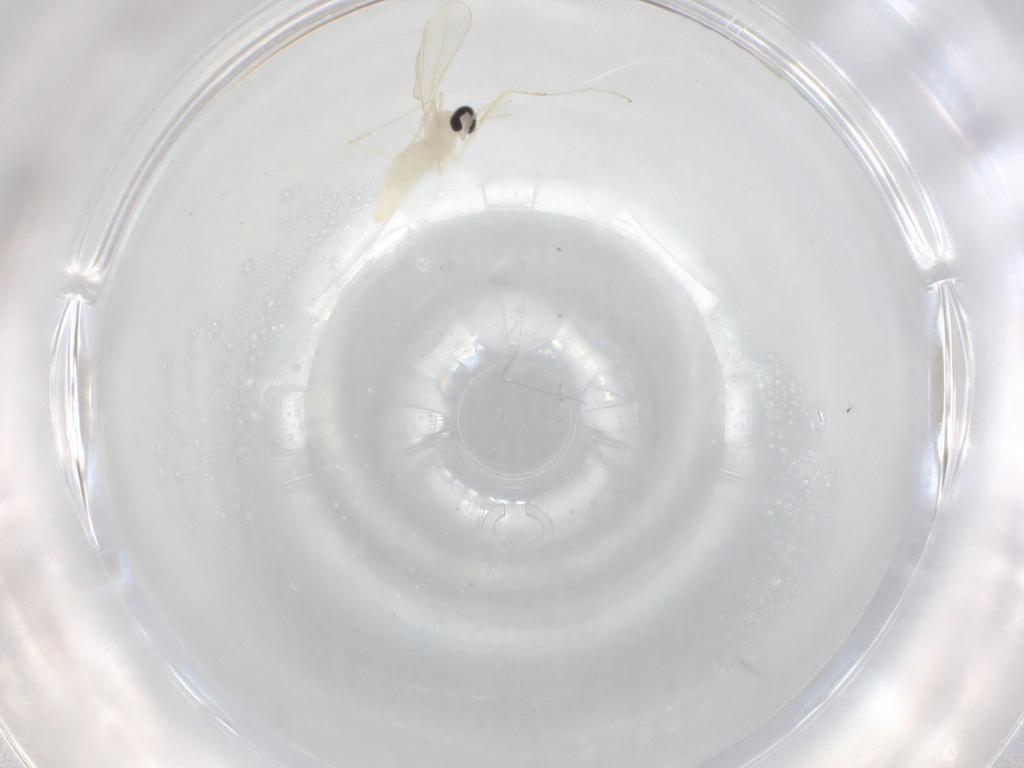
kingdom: Animalia
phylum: Arthropoda
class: Insecta
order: Diptera
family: Cecidomyiidae
